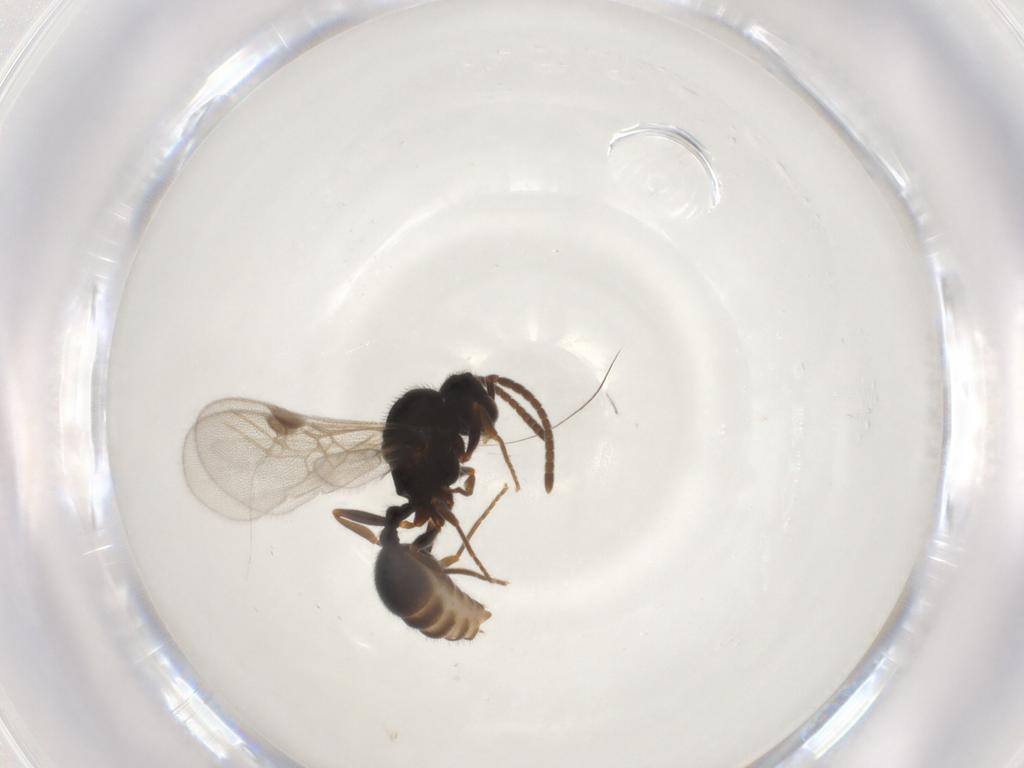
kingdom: Animalia
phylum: Arthropoda
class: Insecta
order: Hymenoptera
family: Formicidae
